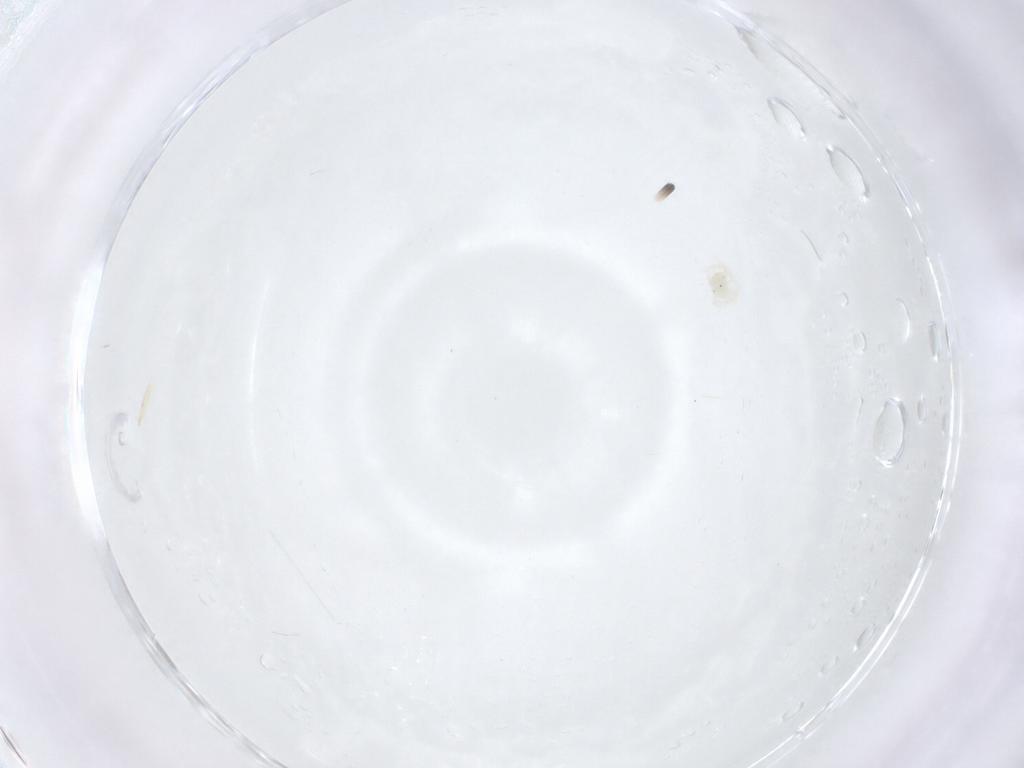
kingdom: Animalia
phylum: Arthropoda
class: Arachnida
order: Trombidiformes
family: Anystidae
